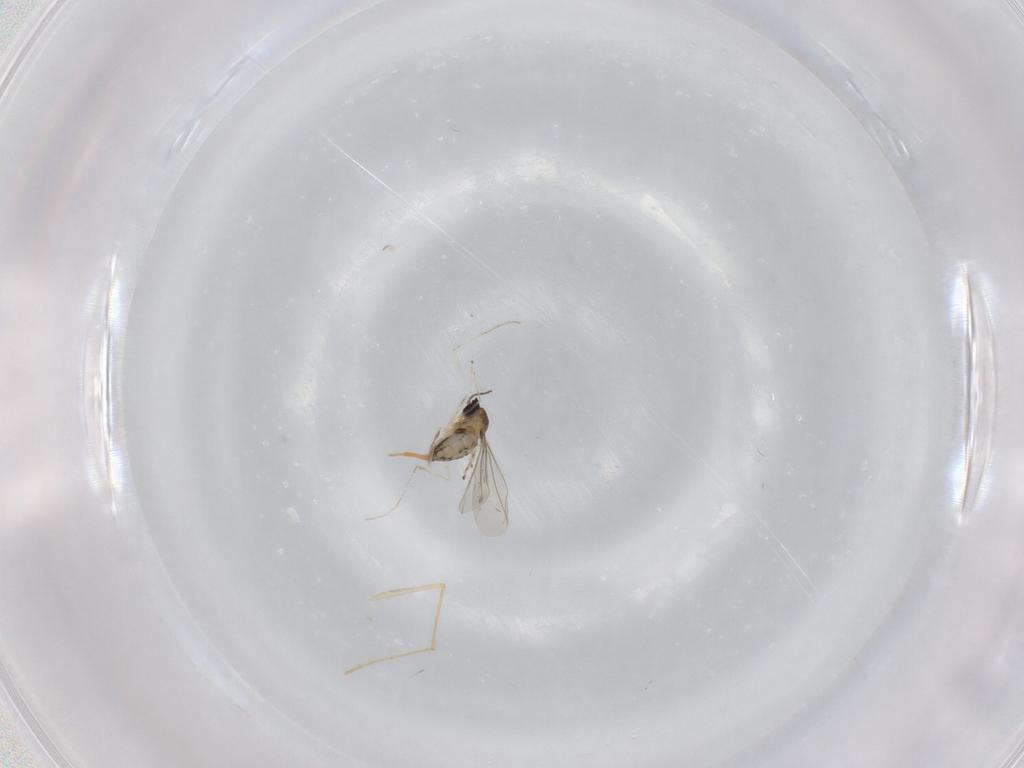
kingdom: Animalia
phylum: Arthropoda
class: Insecta
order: Diptera
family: Cecidomyiidae
